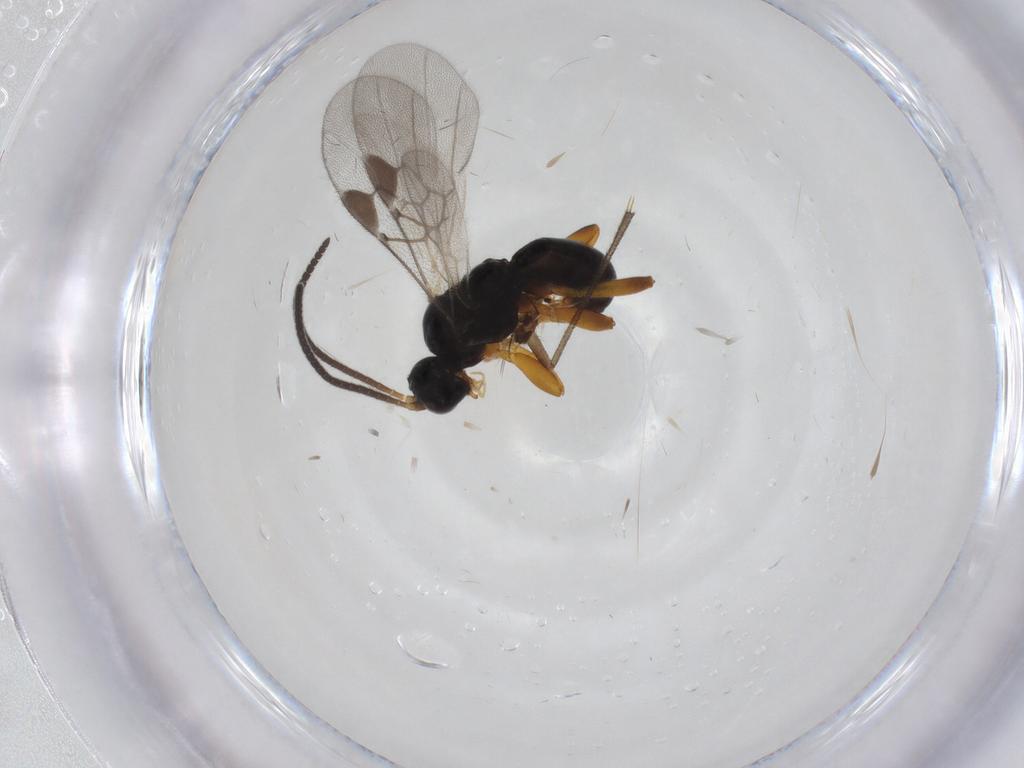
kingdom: Animalia
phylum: Arthropoda
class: Insecta
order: Hymenoptera
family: Braconidae
